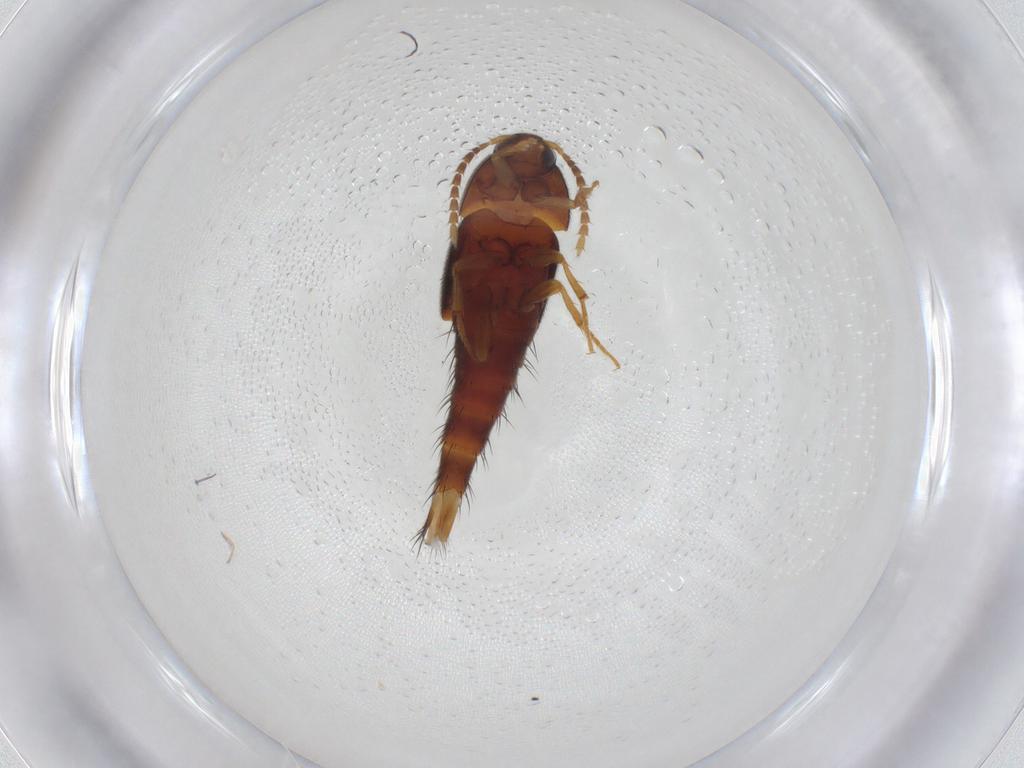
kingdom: Animalia
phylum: Arthropoda
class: Insecta
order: Coleoptera
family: Staphylinidae
